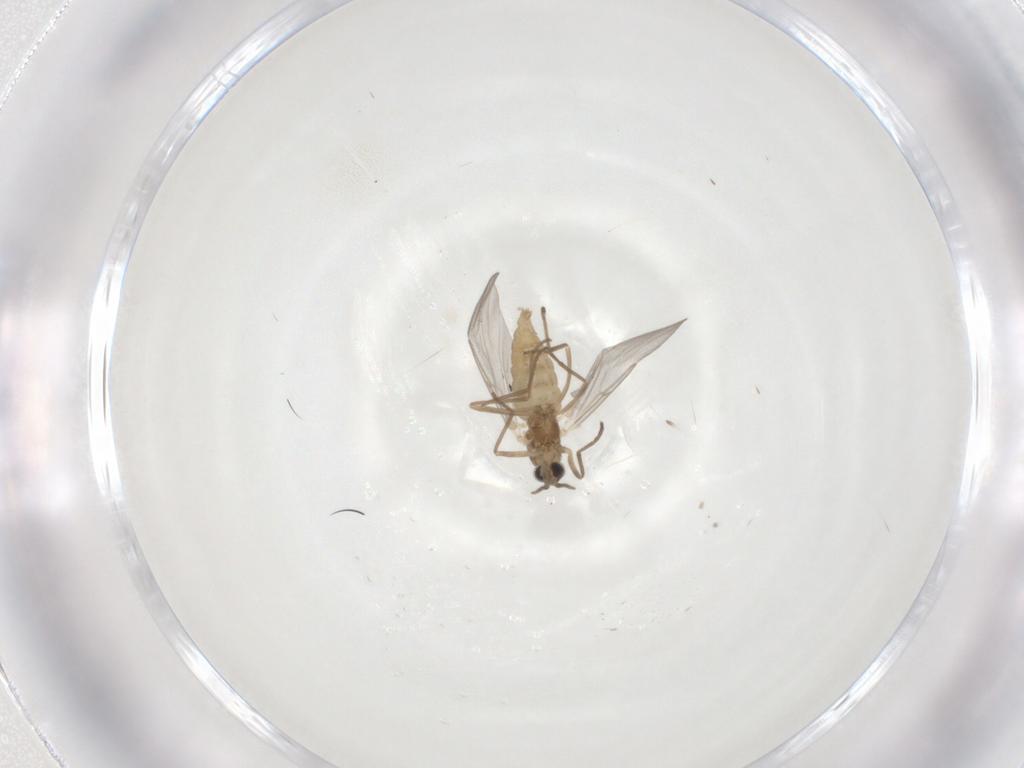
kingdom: Animalia
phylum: Arthropoda
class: Insecta
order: Diptera
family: Cecidomyiidae
